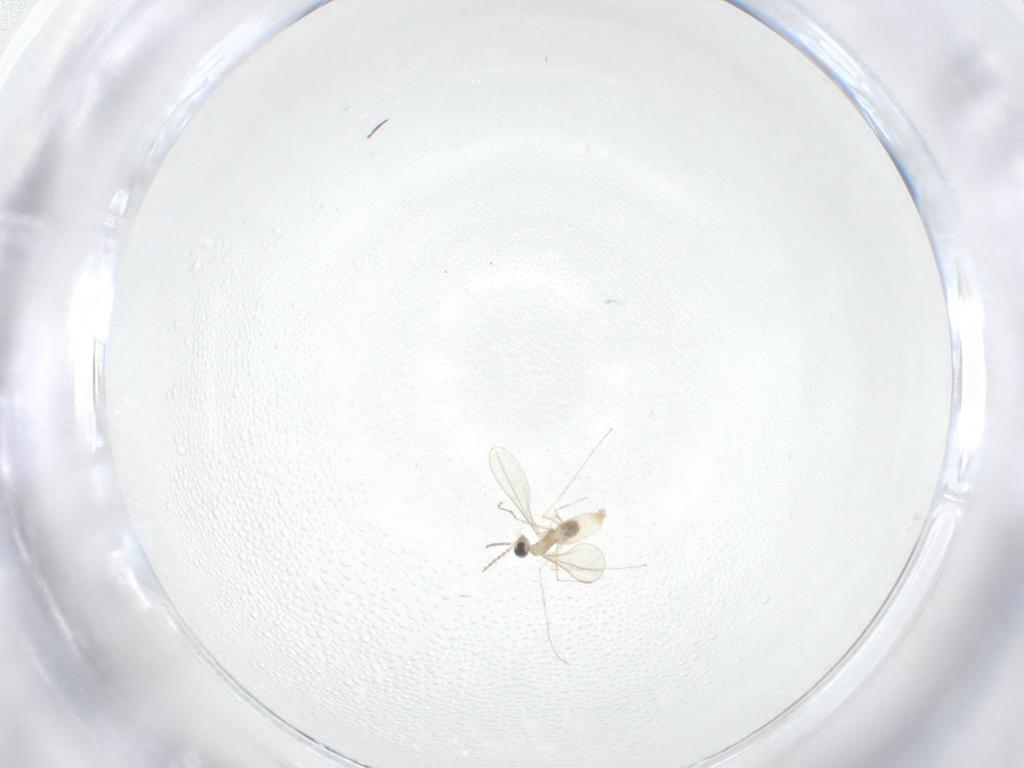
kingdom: Animalia
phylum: Arthropoda
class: Insecta
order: Diptera
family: Cecidomyiidae
